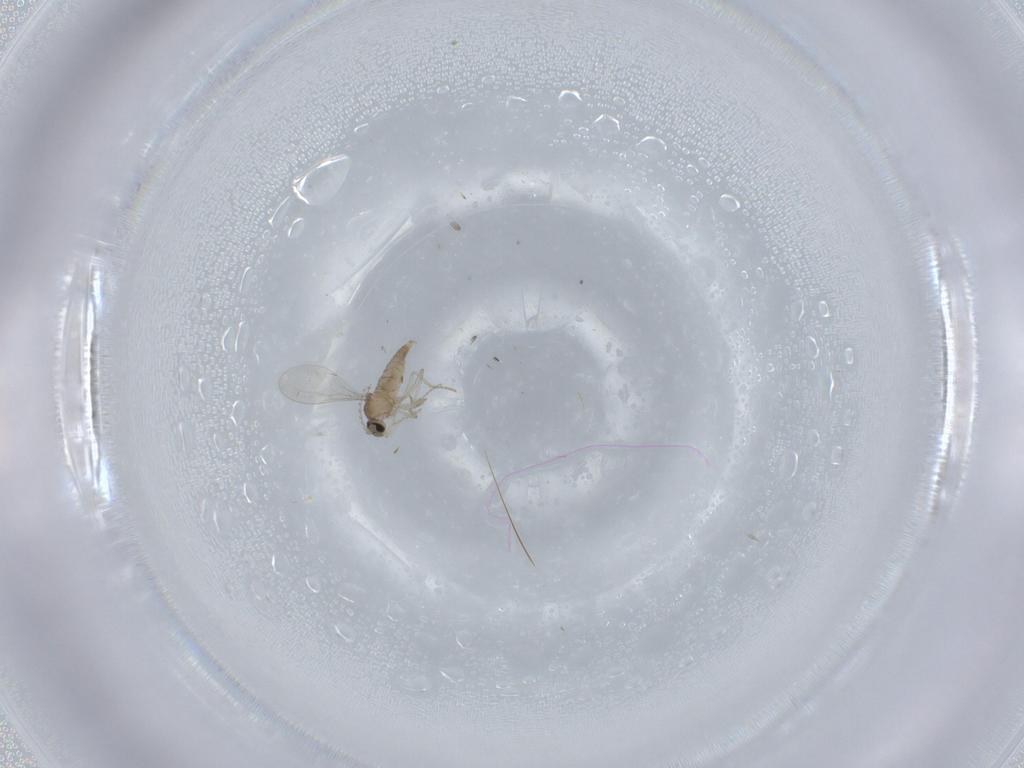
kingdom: Animalia
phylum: Arthropoda
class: Insecta
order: Diptera
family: Cecidomyiidae
